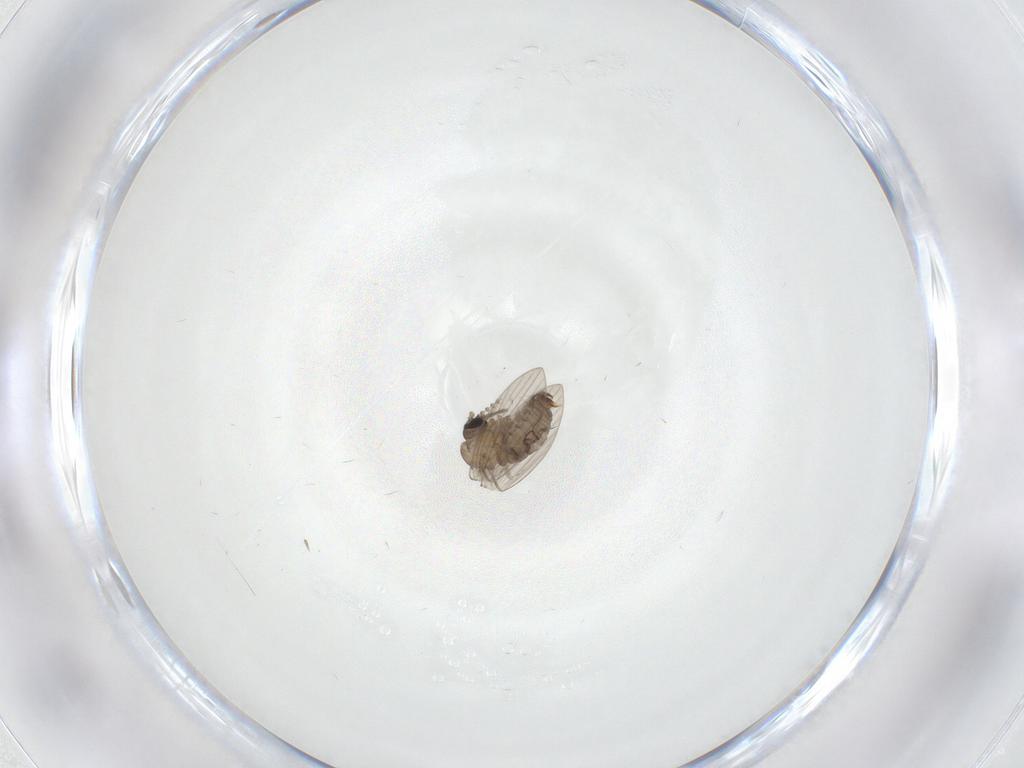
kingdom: Animalia
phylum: Arthropoda
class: Insecta
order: Diptera
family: Psychodidae
